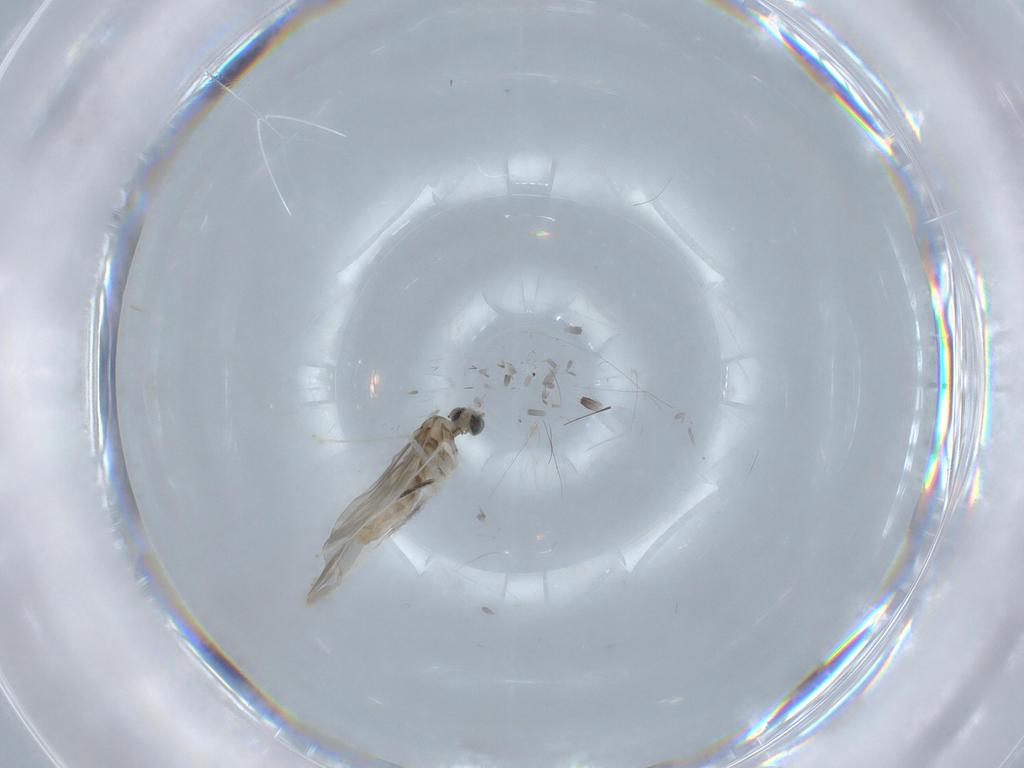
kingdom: Animalia
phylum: Arthropoda
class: Insecta
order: Diptera
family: Cecidomyiidae
